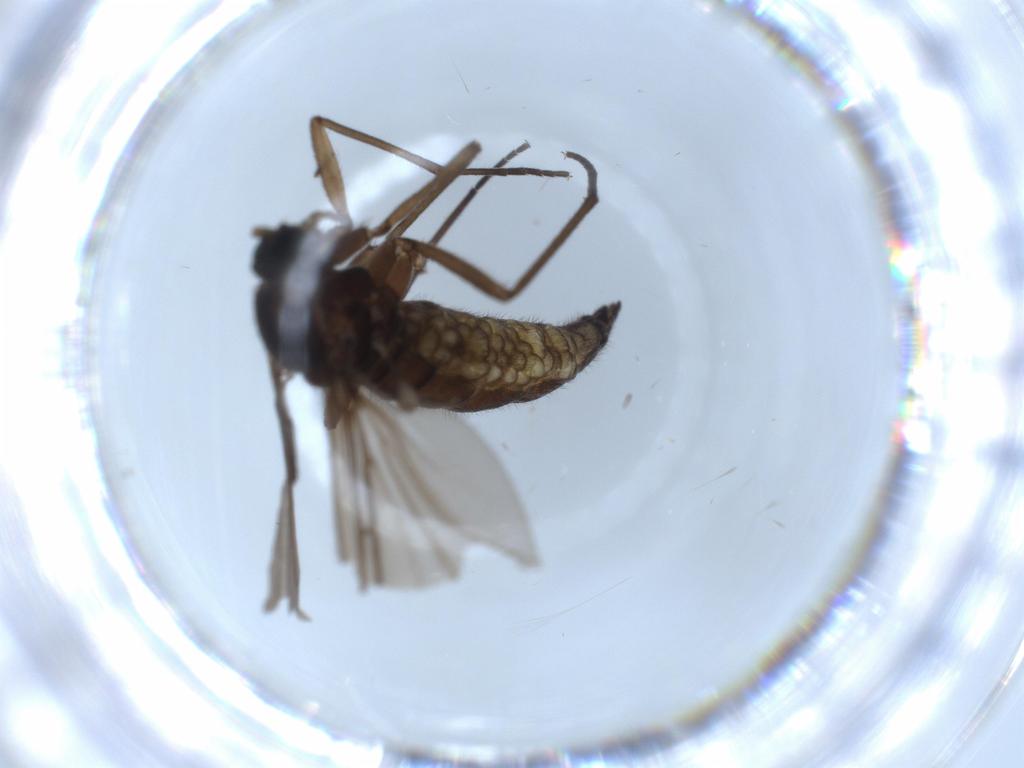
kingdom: Animalia
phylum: Arthropoda
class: Insecta
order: Diptera
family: Sciaridae
